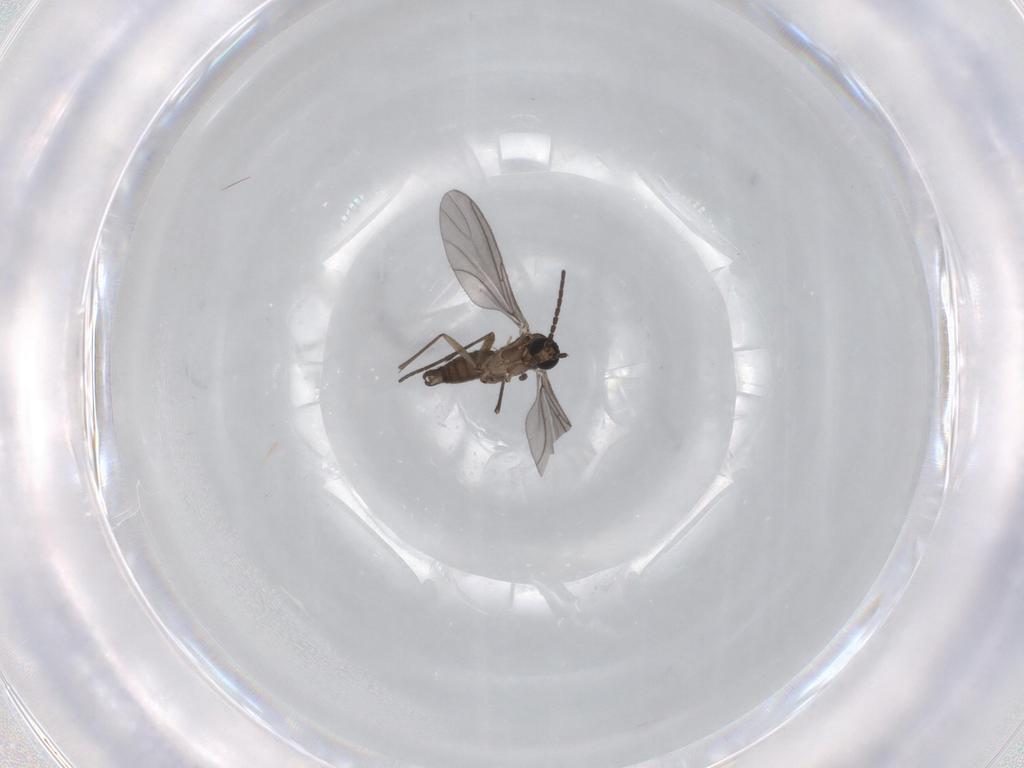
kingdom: Animalia
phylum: Arthropoda
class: Insecta
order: Diptera
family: Sciaridae
